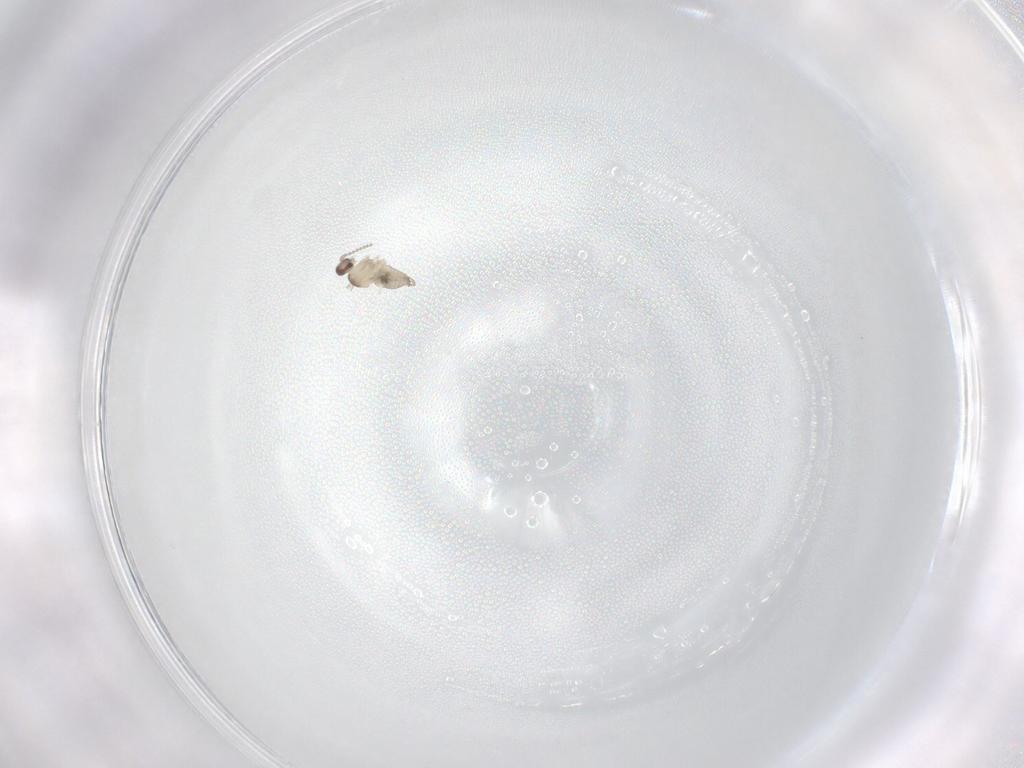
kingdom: Animalia
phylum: Arthropoda
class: Insecta
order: Diptera
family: Cecidomyiidae
